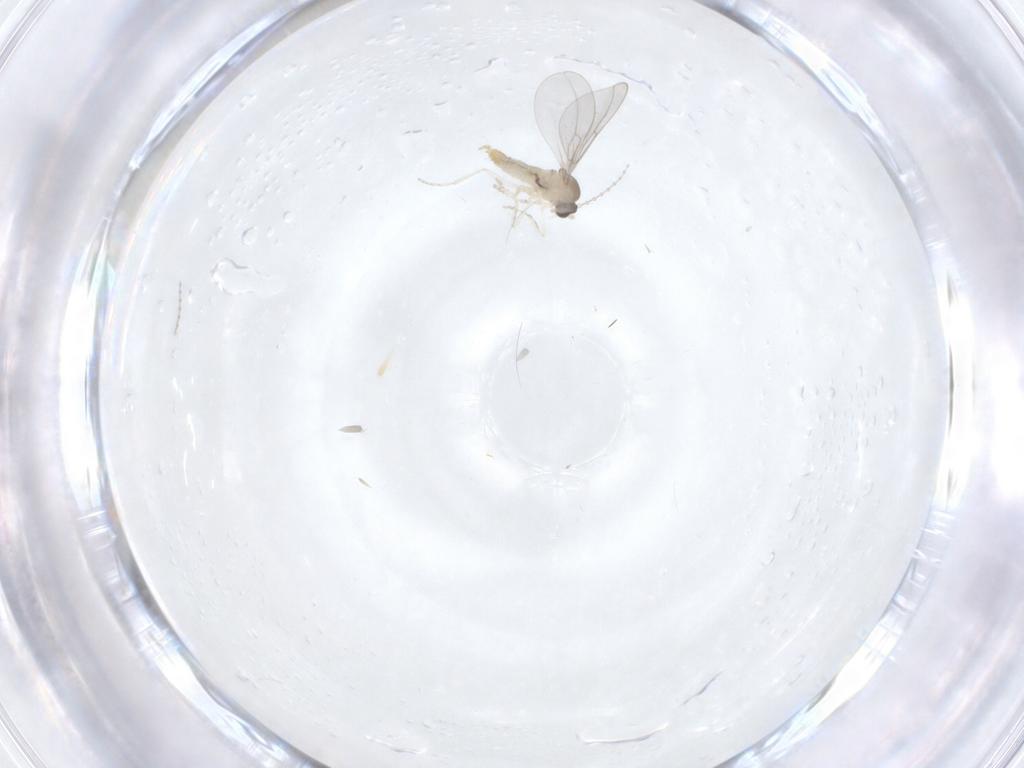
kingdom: Animalia
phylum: Arthropoda
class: Insecta
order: Diptera
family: Cecidomyiidae
